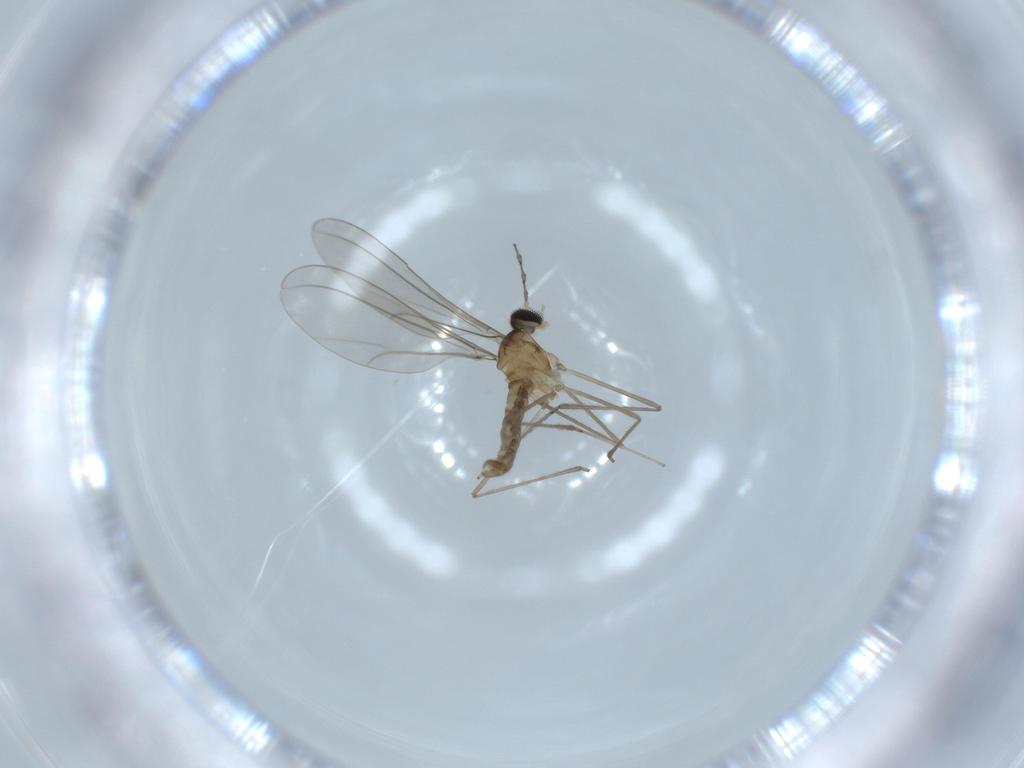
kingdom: Animalia
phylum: Arthropoda
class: Insecta
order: Diptera
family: Cecidomyiidae
